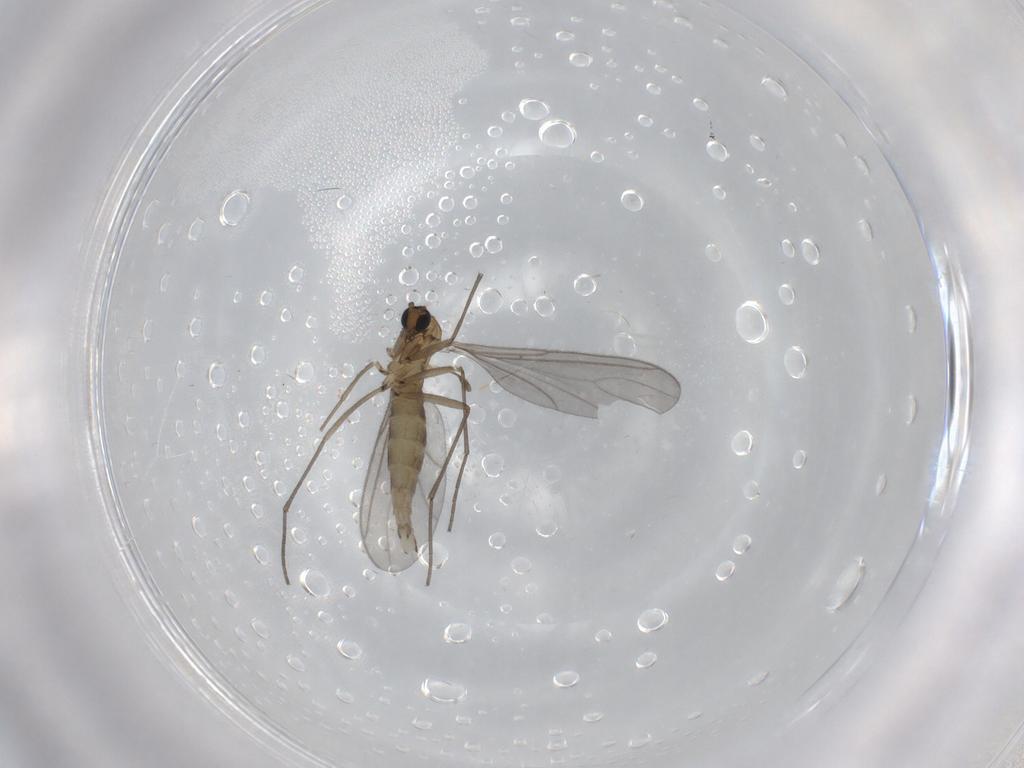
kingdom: Animalia
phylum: Arthropoda
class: Insecta
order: Diptera
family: Sciaridae
